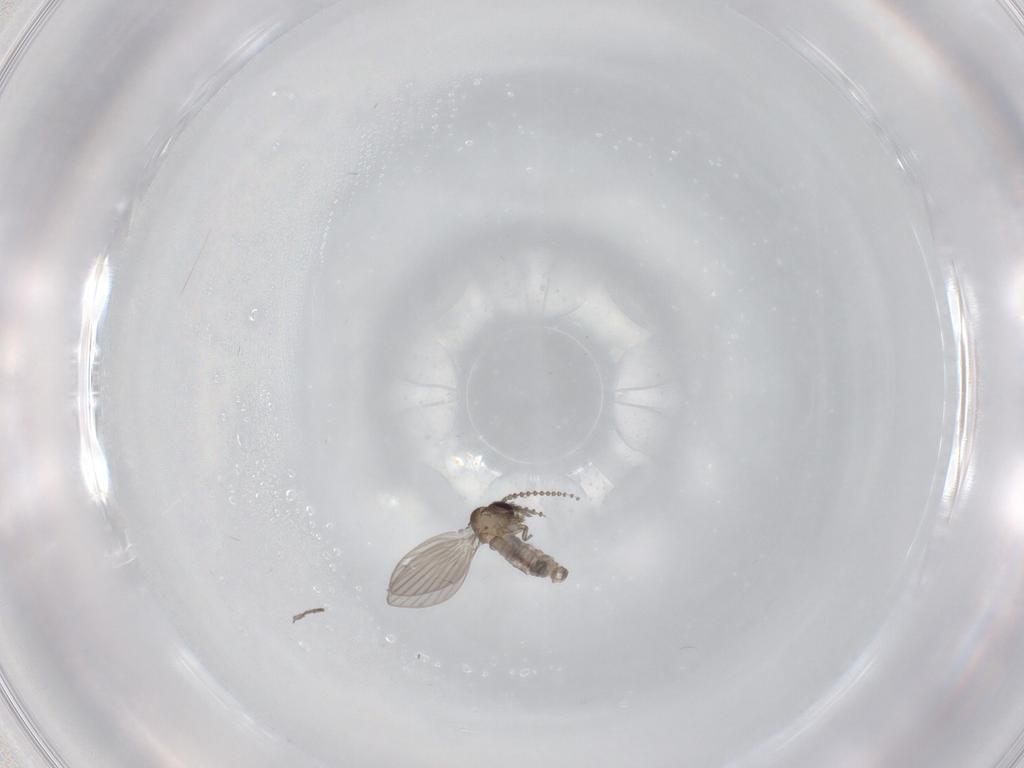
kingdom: Animalia
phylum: Arthropoda
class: Insecta
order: Diptera
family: Psychodidae
